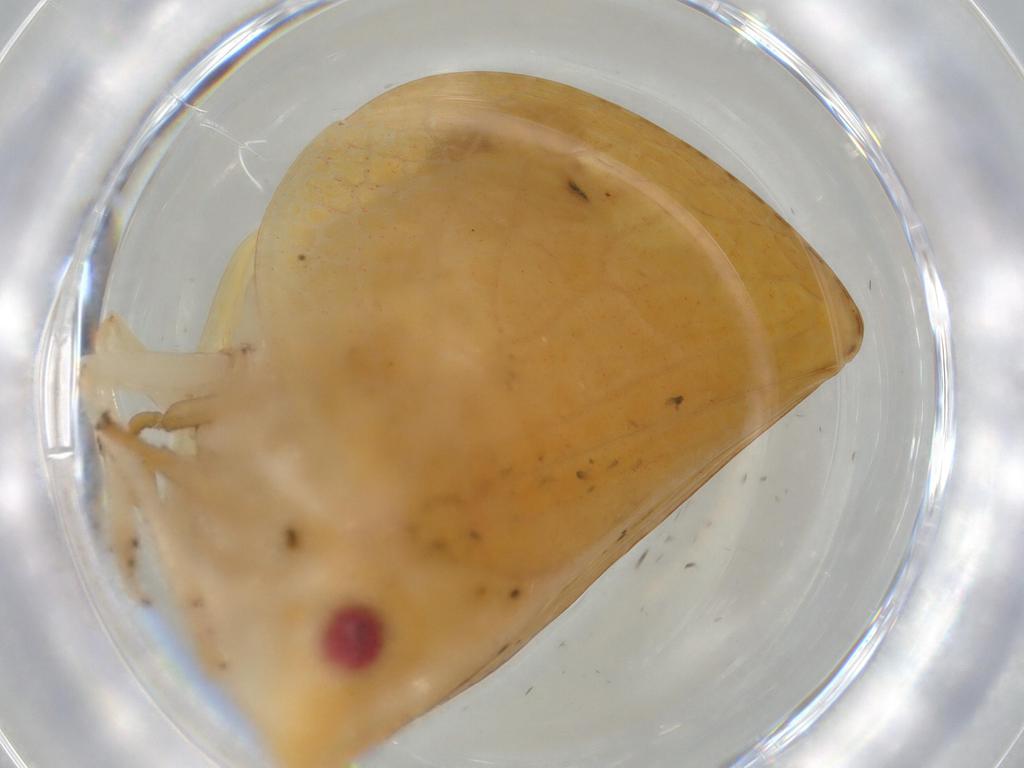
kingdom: Animalia
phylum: Arthropoda
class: Insecta
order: Hemiptera
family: Acanaloniidae
